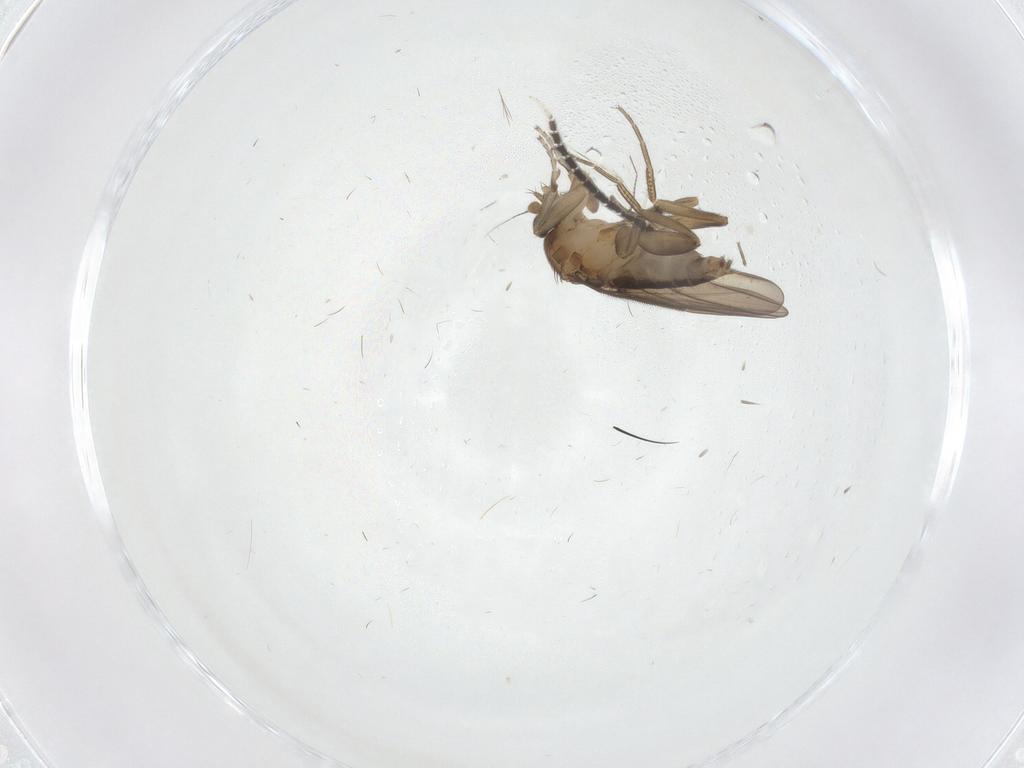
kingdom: Animalia
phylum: Arthropoda
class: Insecta
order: Diptera
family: Sciaridae
